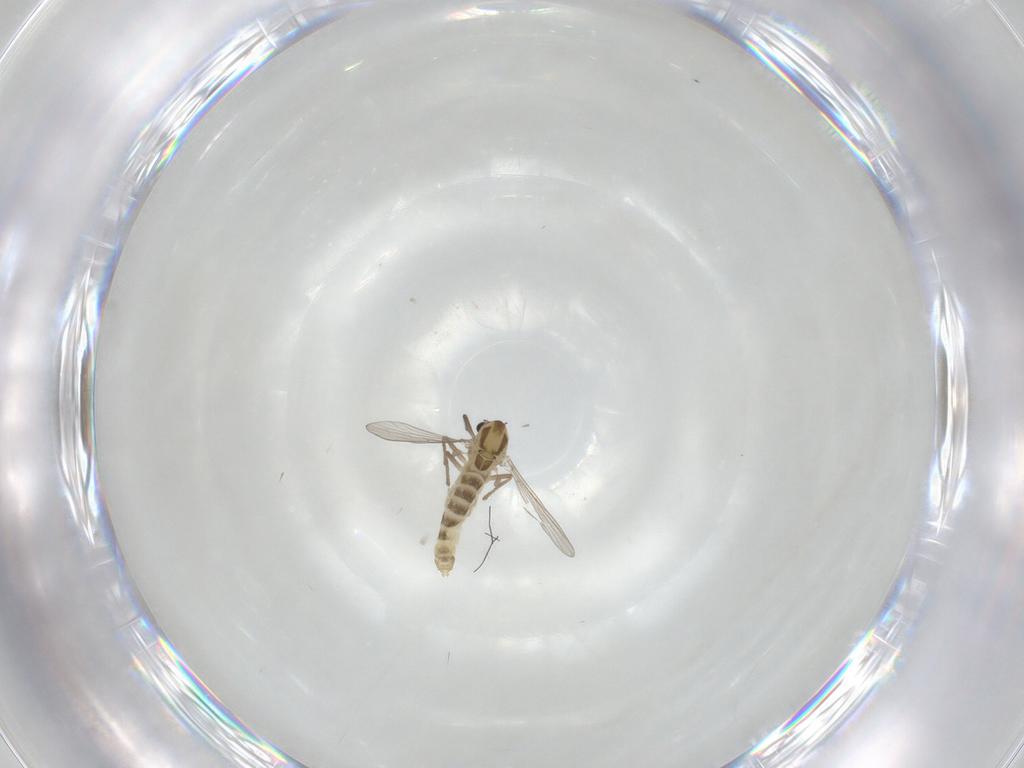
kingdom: Animalia
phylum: Arthropoda
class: Insecta
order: Diptera
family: Chironomidae
